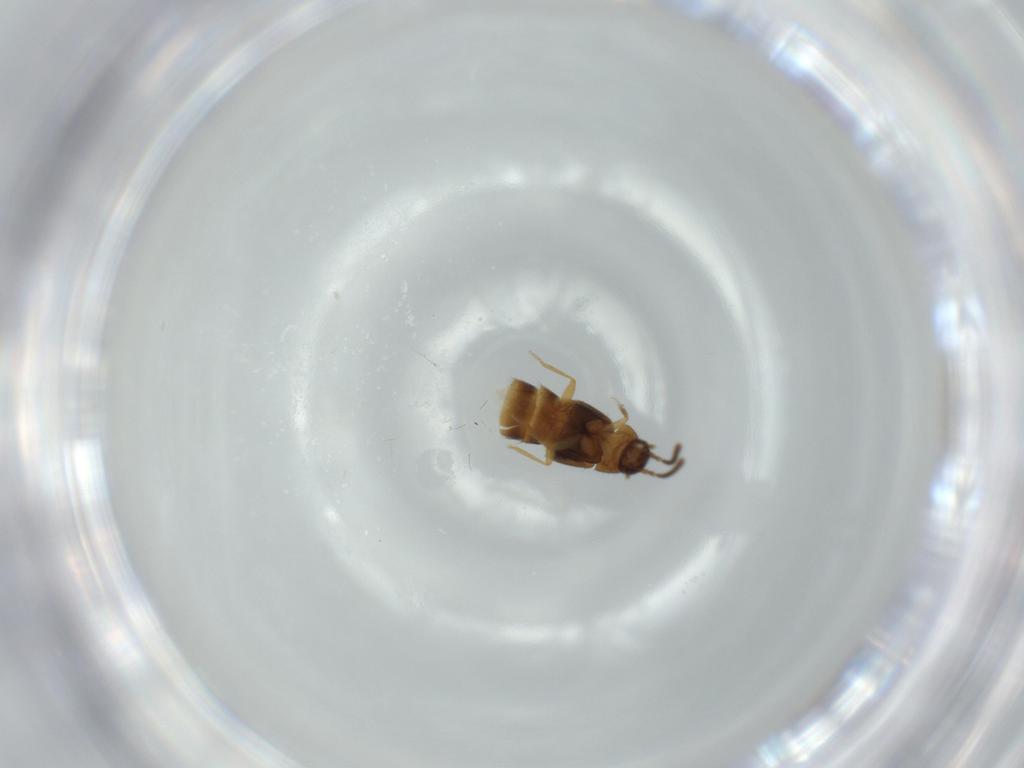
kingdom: Animalia
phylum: Arthropoda
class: Insecta
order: Coleoptera
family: Staphylinidae
